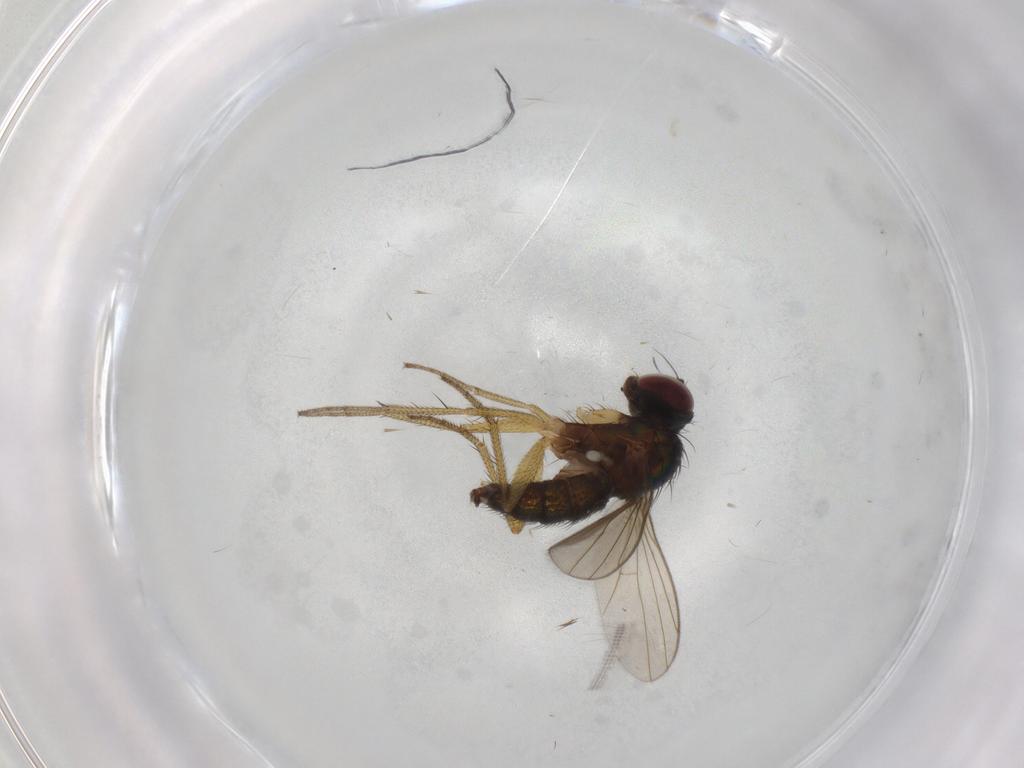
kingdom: Animalia
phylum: Arthropoda
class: Insecta
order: Diptera
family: Dolichopodidae
